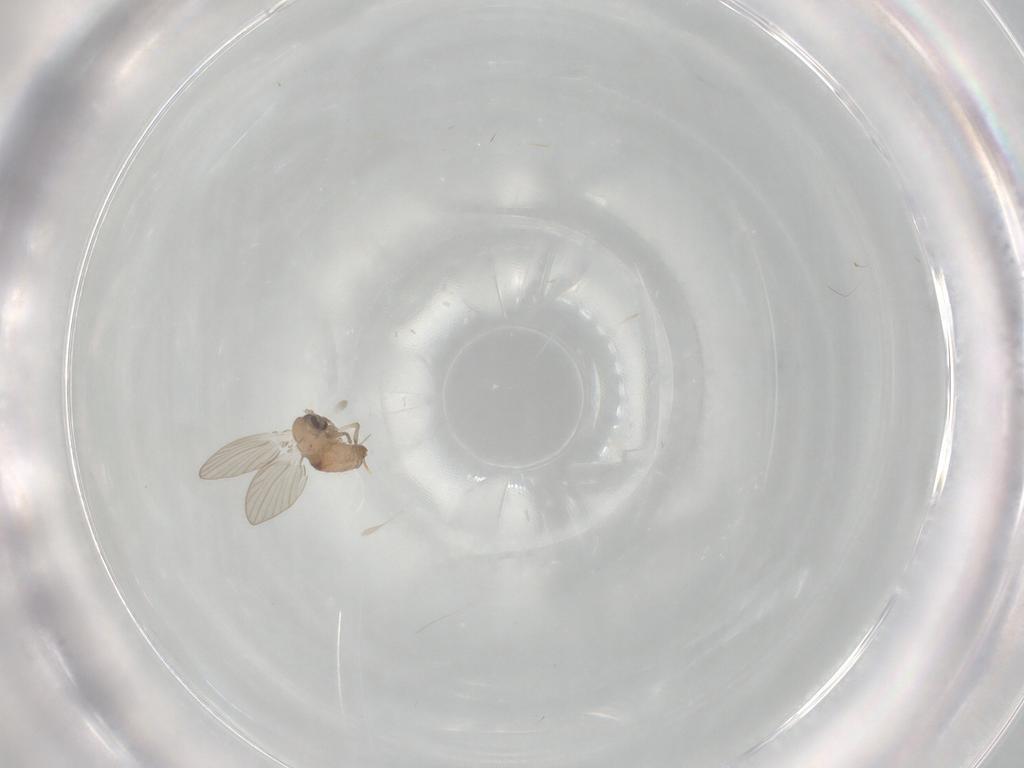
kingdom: Animalia
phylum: Arthropoda
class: Insecta
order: Diptera
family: Psychodidae
